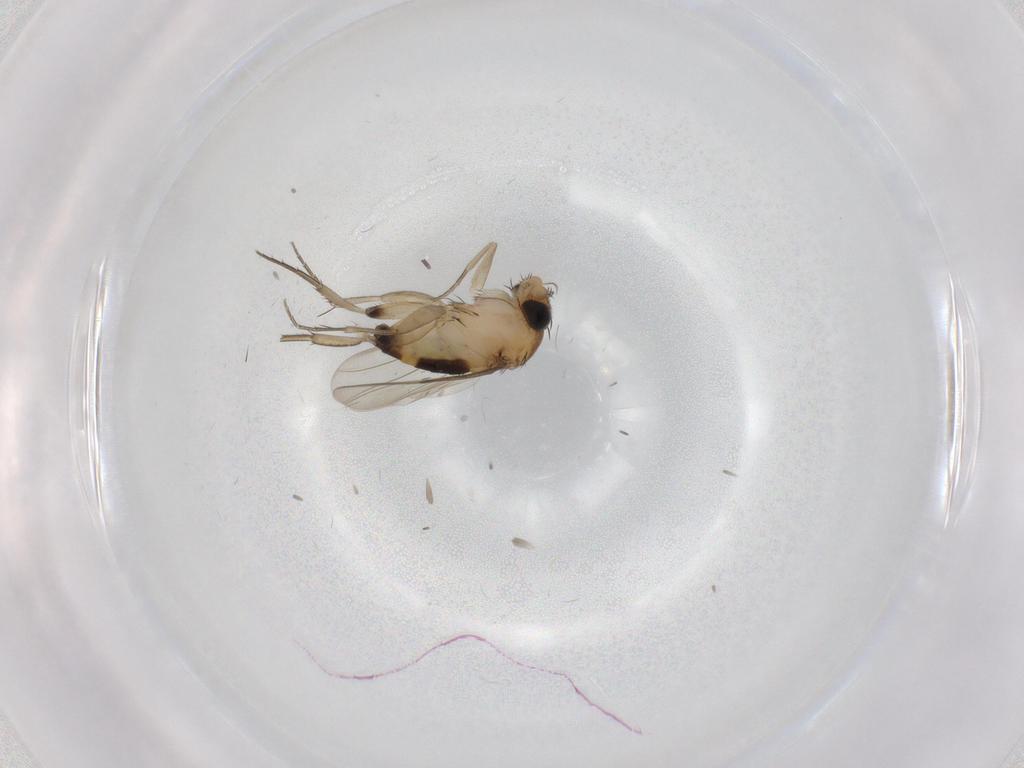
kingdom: Animalia
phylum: Arthropoda
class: Insecta
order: Diptera
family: Phoridae
